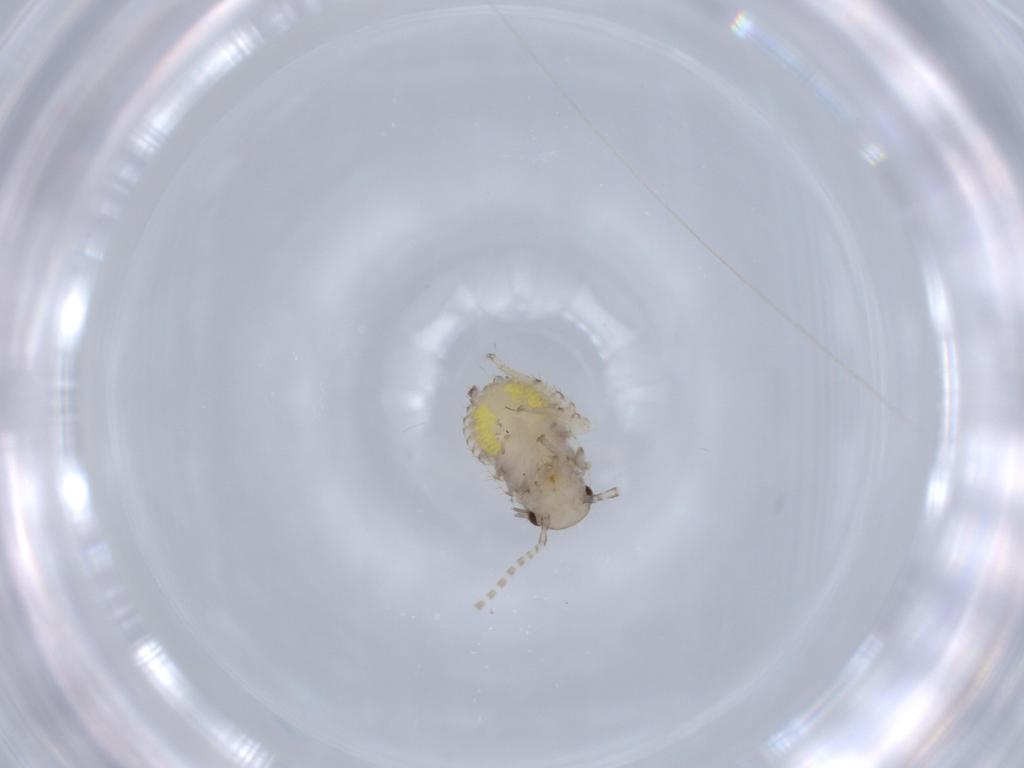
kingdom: Animalia
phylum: Arthropoda
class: Insecta
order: Blattodea
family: Ectobiidae
